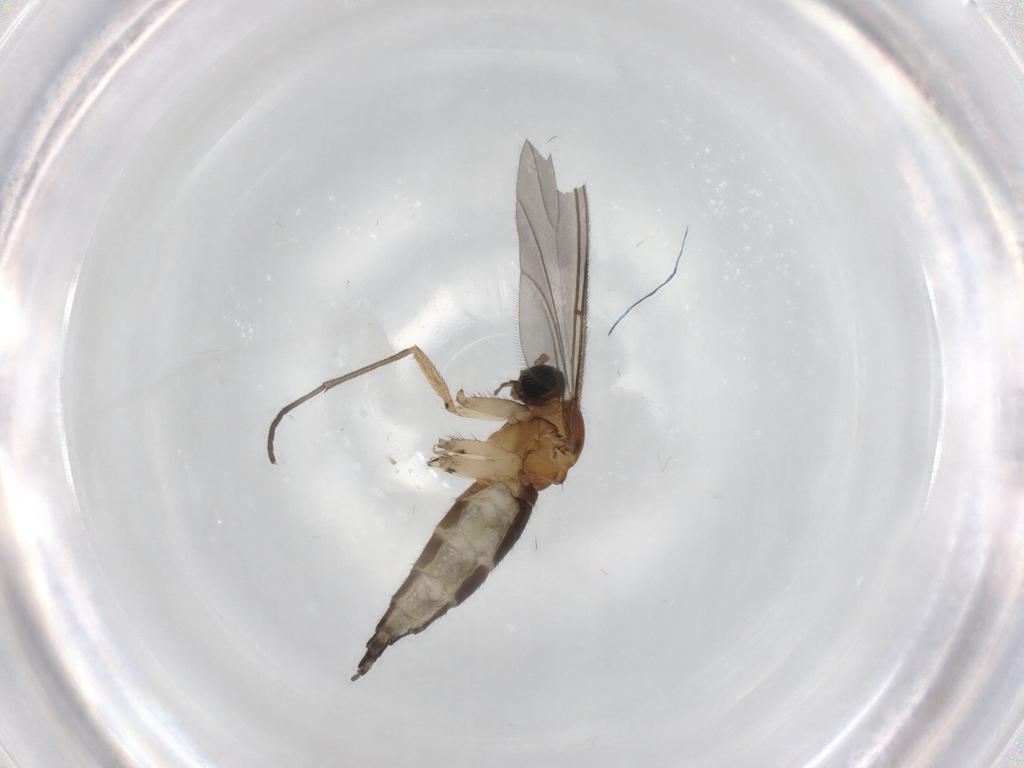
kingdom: Animalia
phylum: Arthropoda
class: Insecta
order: Diptera
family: Sciaridae
